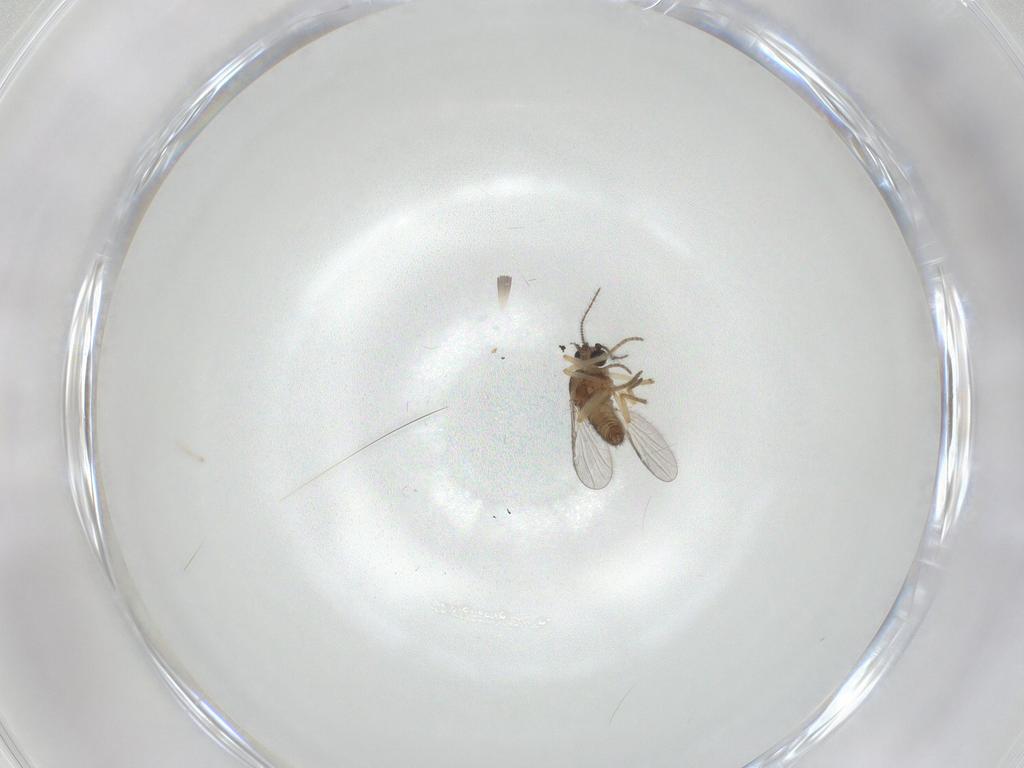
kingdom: Animalia
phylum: Arthropoda
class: Insecta
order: Diptera
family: Ceratopogonidae
